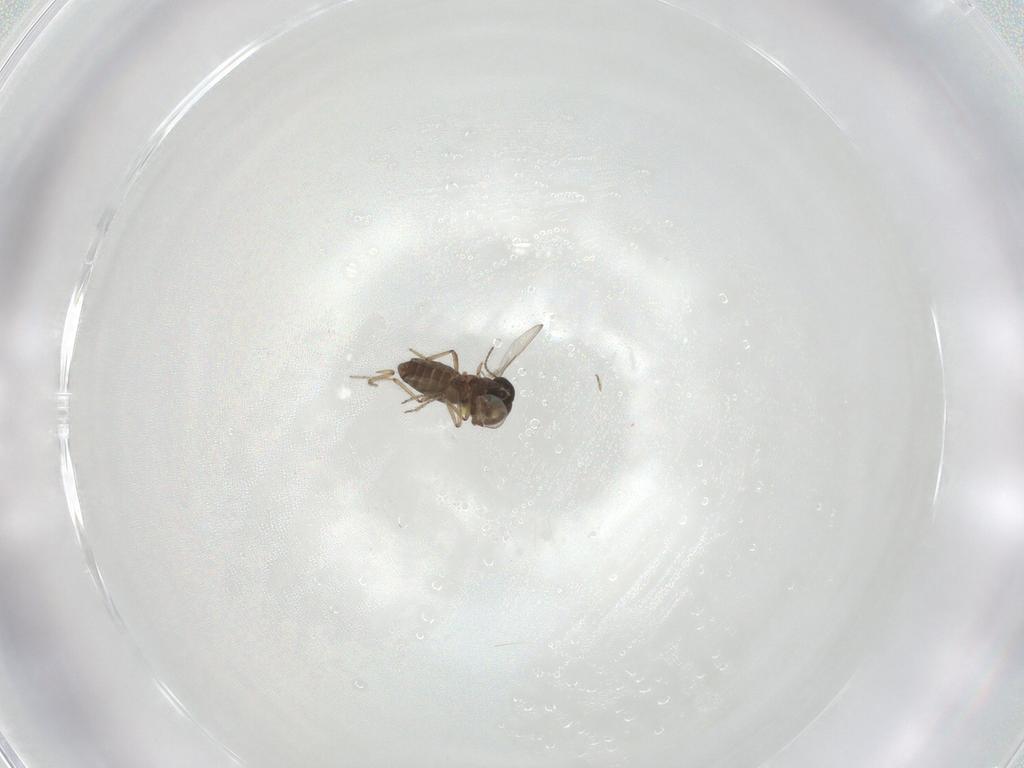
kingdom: Animalia
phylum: Arthropoda
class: Insecta
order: Diptera
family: Ceratopogonidae
